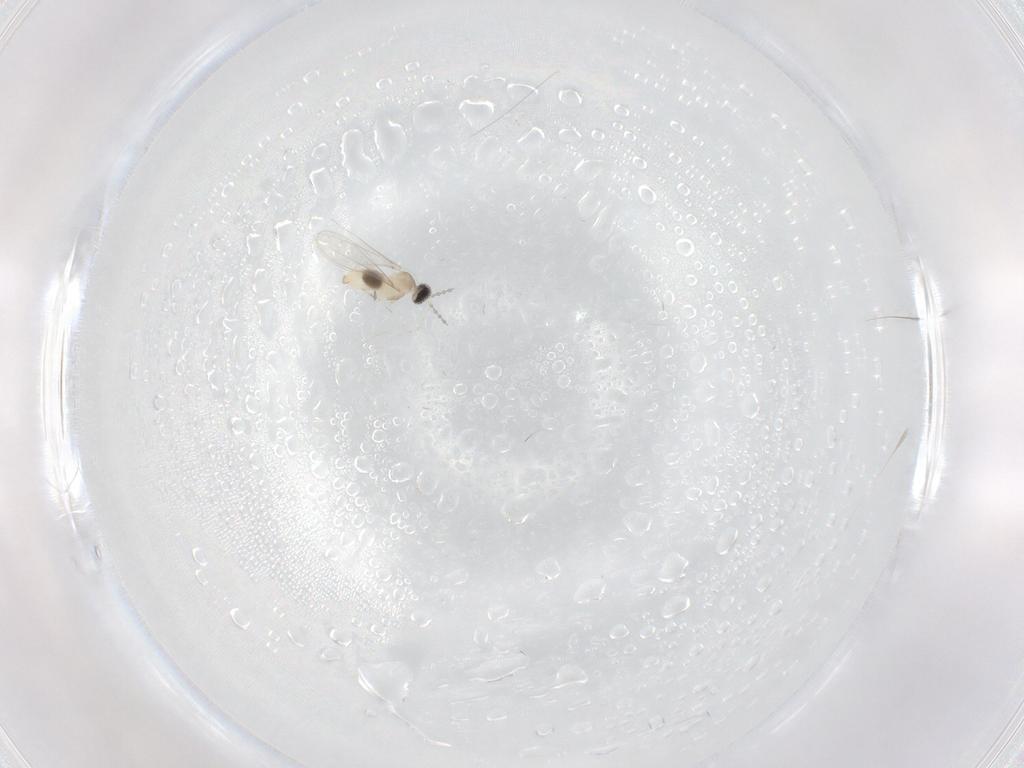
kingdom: Animalia
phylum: Arthropoda
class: Insecta
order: Diptera
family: Cecidomyiidae
